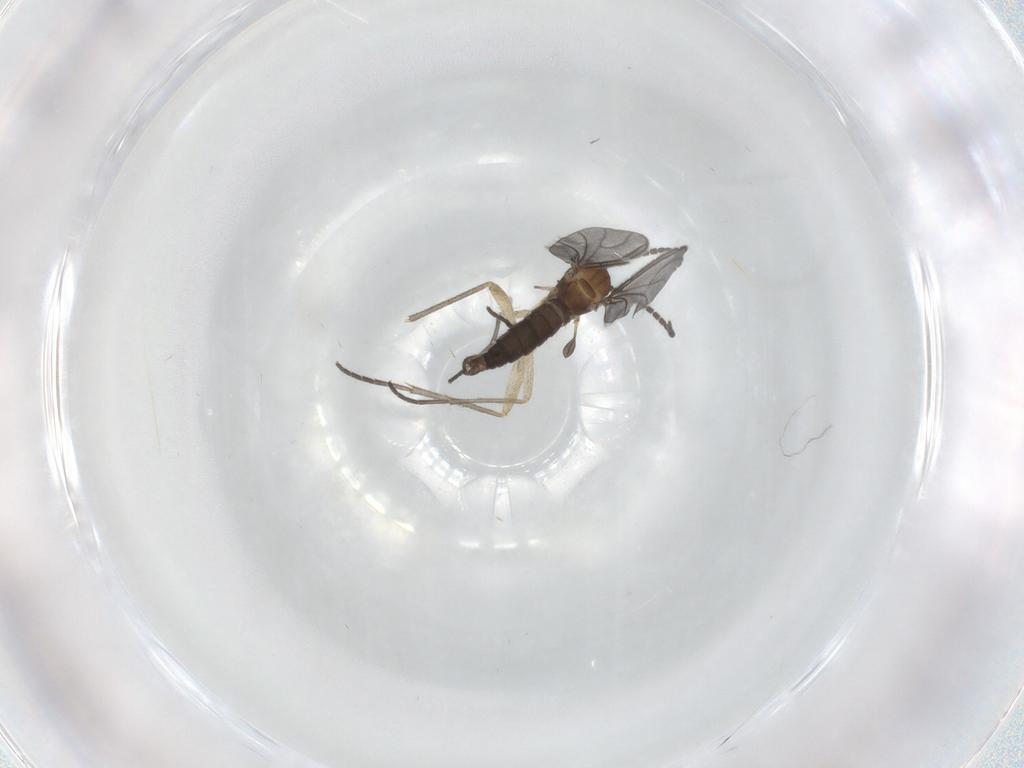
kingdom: Animalia
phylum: Arthropoda
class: Insecta
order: Diptera
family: Sciaridae
